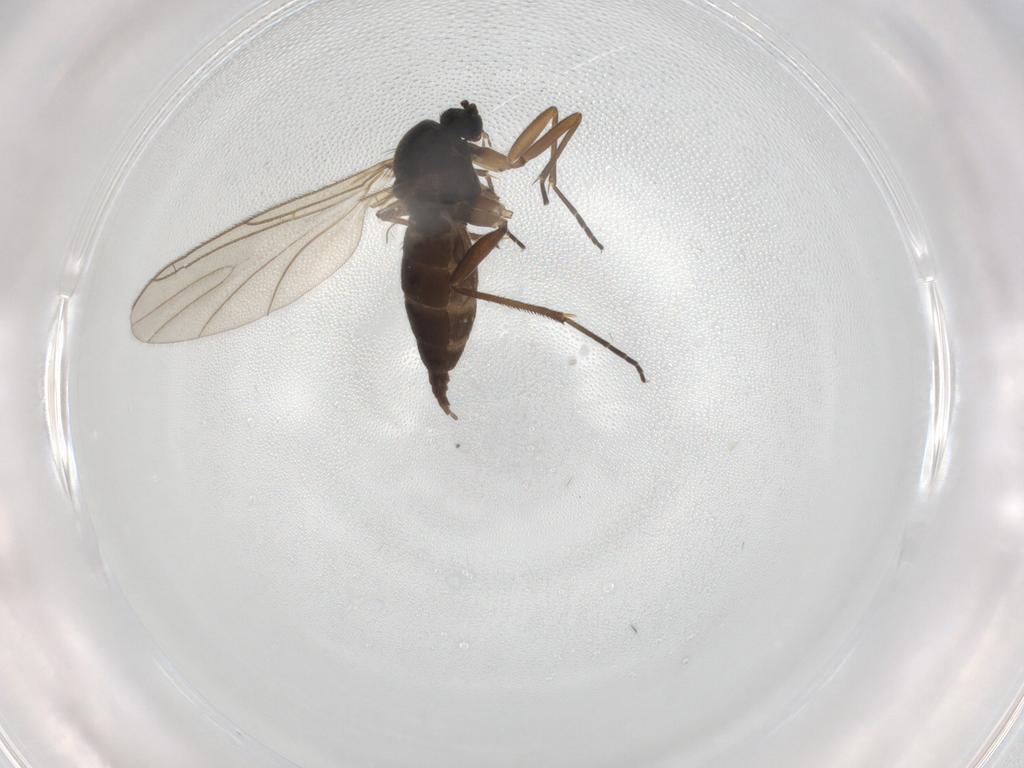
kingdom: Animalia
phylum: Arthropoda
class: Insecta
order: Diptera
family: Sciaridae
